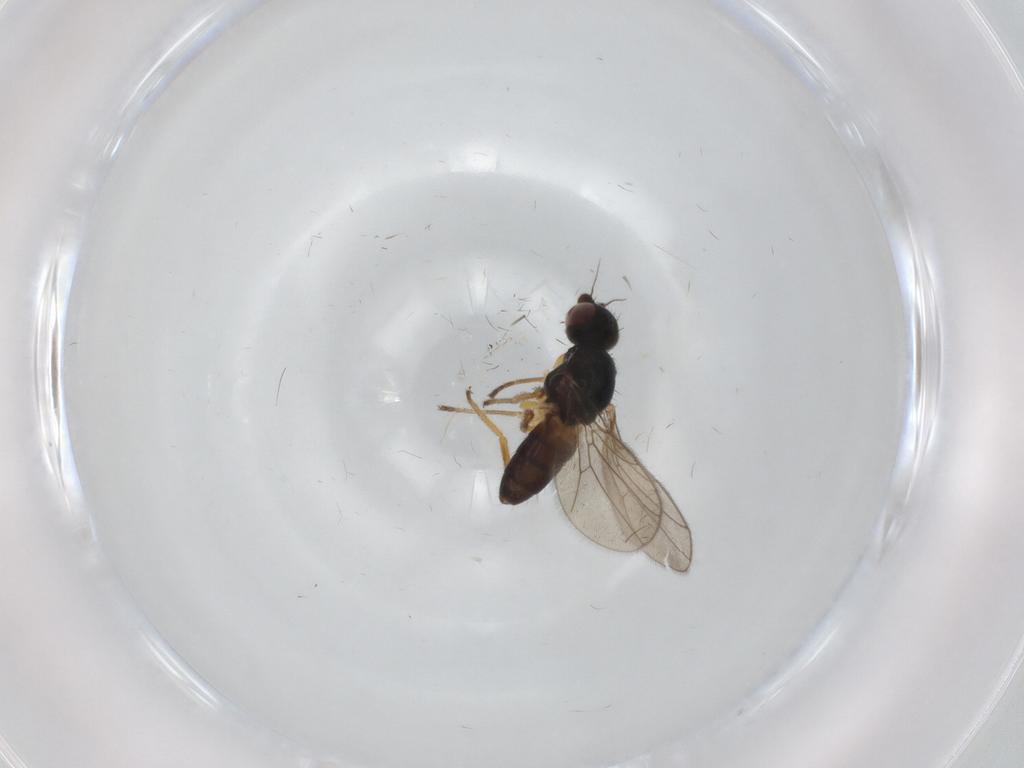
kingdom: Animalia
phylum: Arthropoda
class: Insecta
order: Diptera
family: Chloropidae
